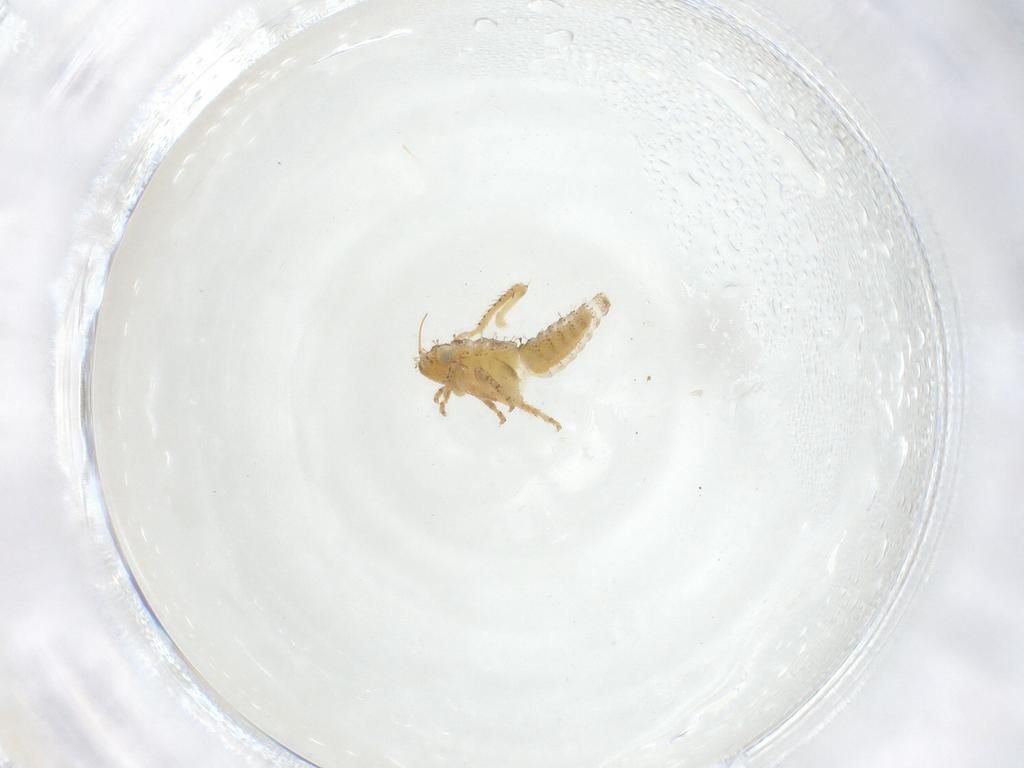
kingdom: Animalia
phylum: Arthropoda
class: Insecta
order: Hemiptera
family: Cicadellidae
